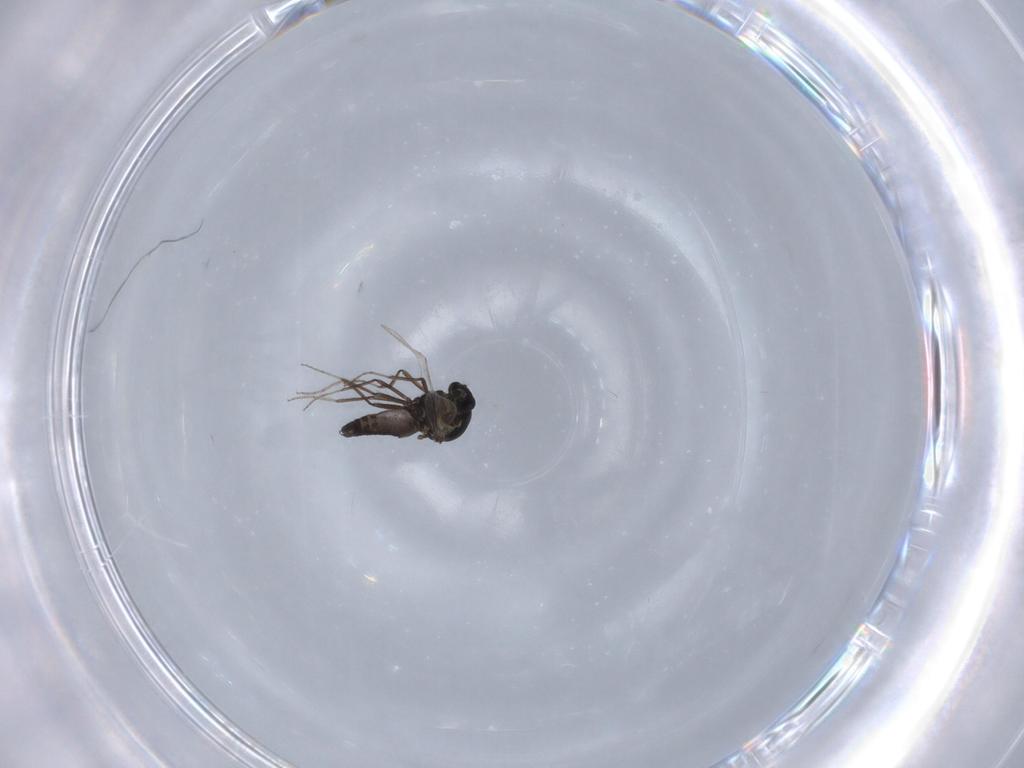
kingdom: Animalia
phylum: Arthropoda
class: Insecta
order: Diptera
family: Ceratopogonidae
